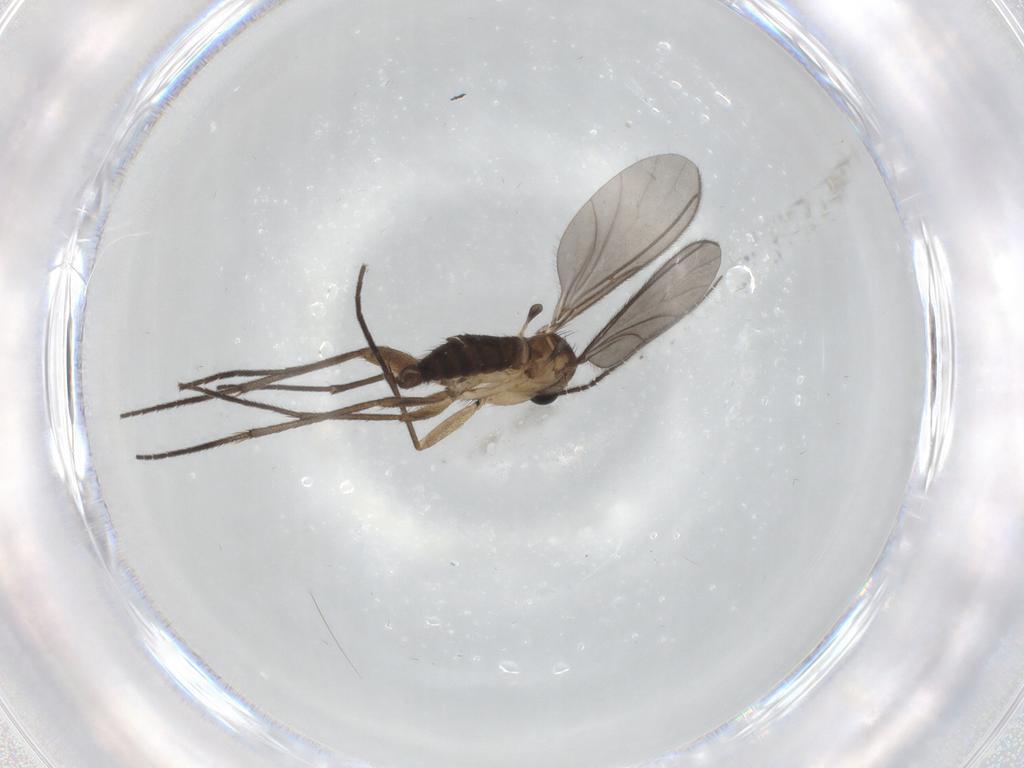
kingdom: Animalia
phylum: Arthropoda
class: Insecta
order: Diptera
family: Sciaridae
